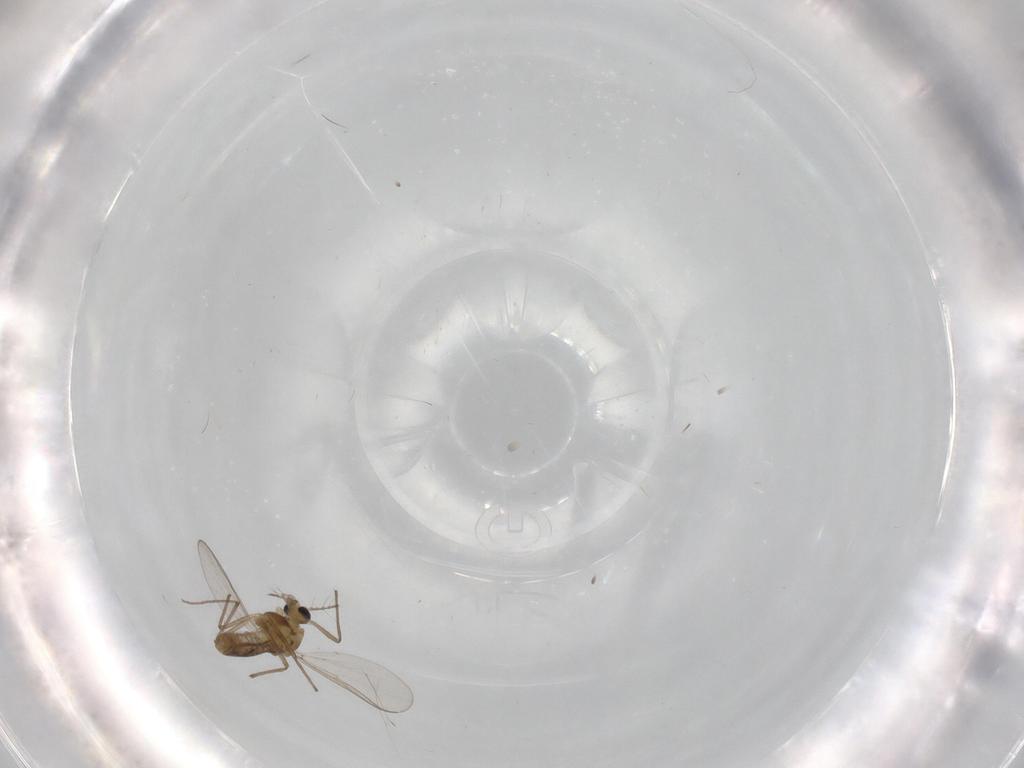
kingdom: Animalia
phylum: Arthropoda
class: Insecta
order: Diptera
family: Chironomidae
